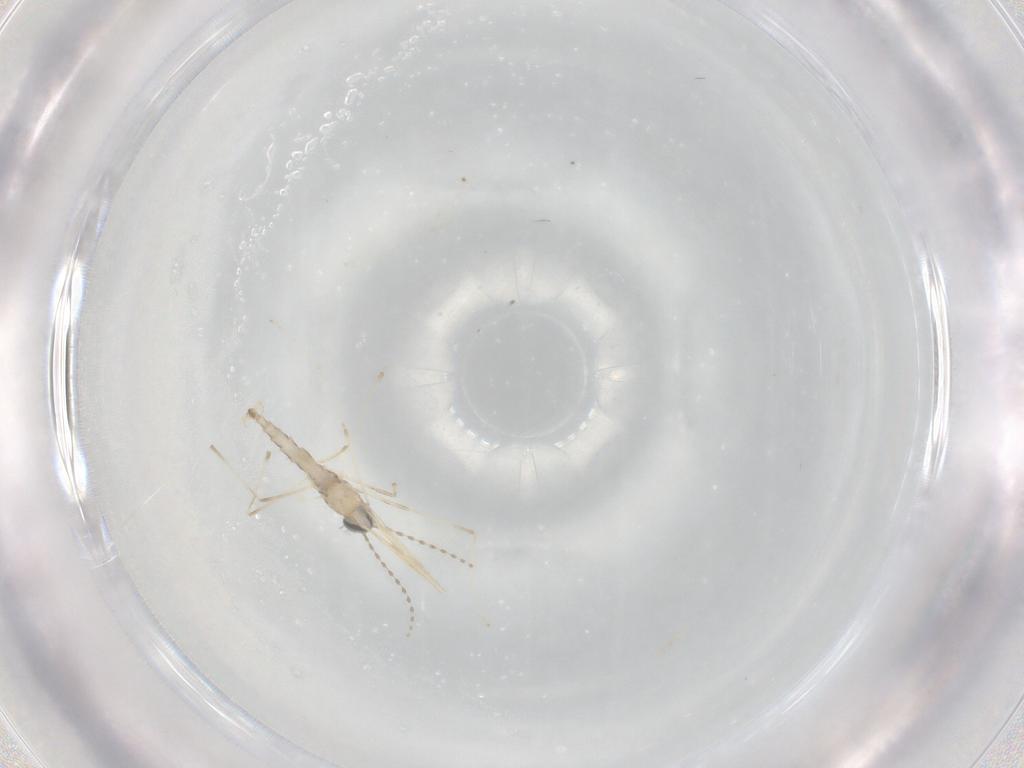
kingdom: Animalia
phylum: Arthropoda
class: Insecta
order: Diptera
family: Cecidomyiidae
